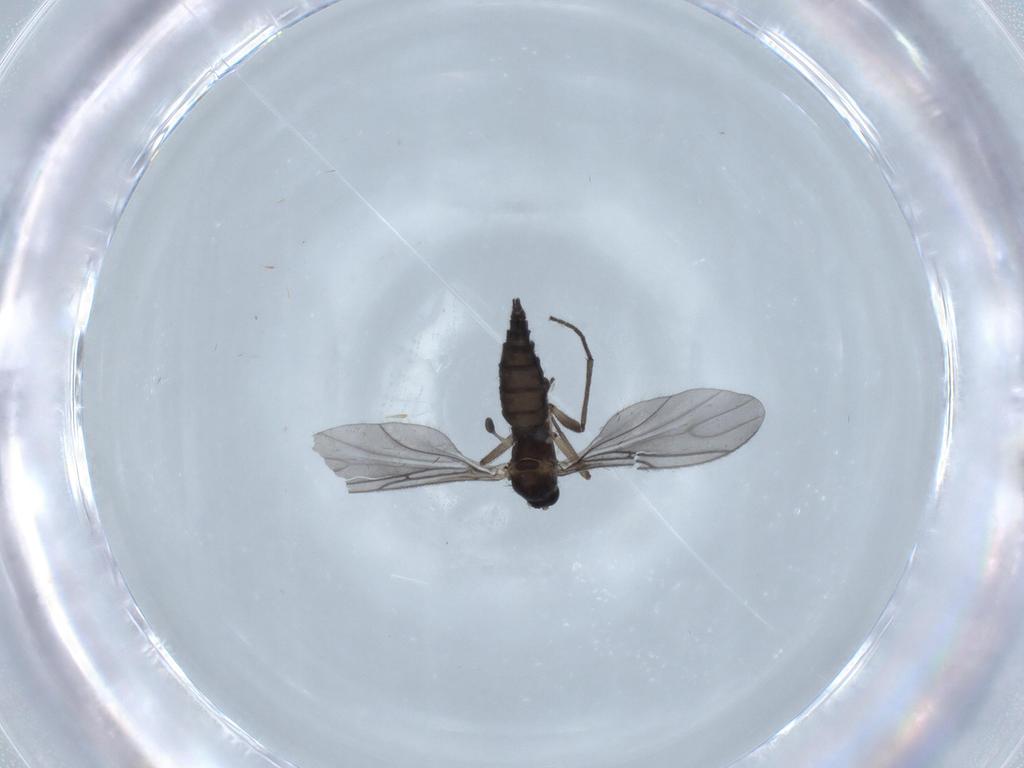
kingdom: Animalia
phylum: Arthropoda
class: Insecta
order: Diptera
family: Sciaridae
